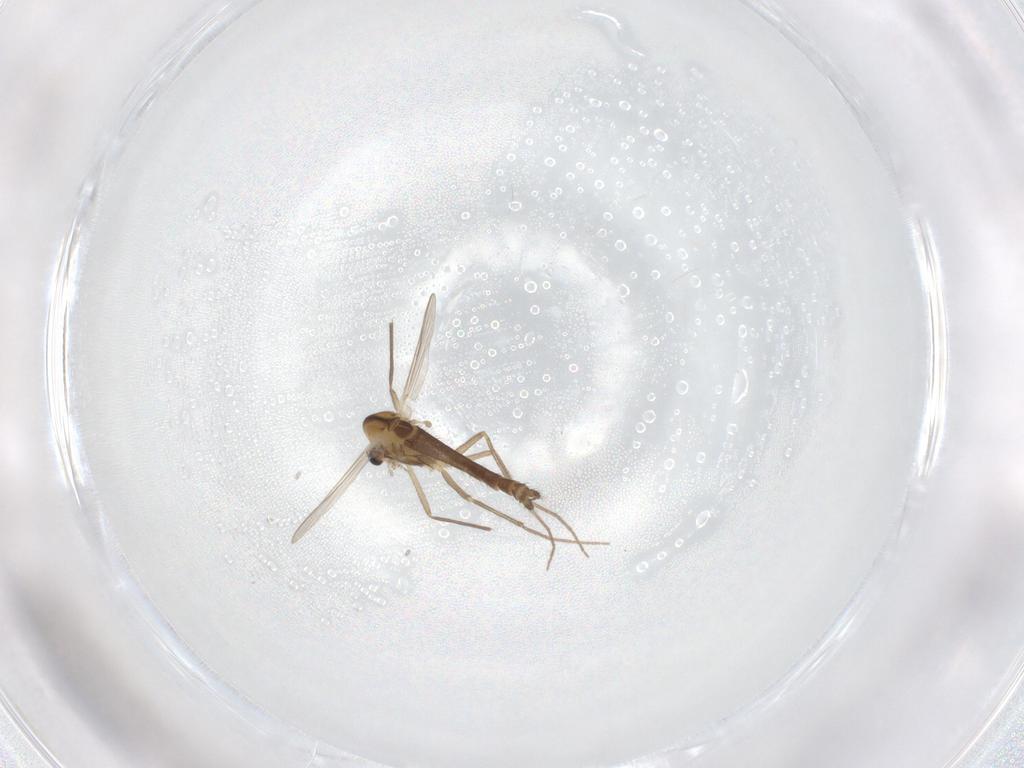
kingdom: Animalia
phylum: Arthropoda
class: Insecta
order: Diptera
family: Chironomidae
